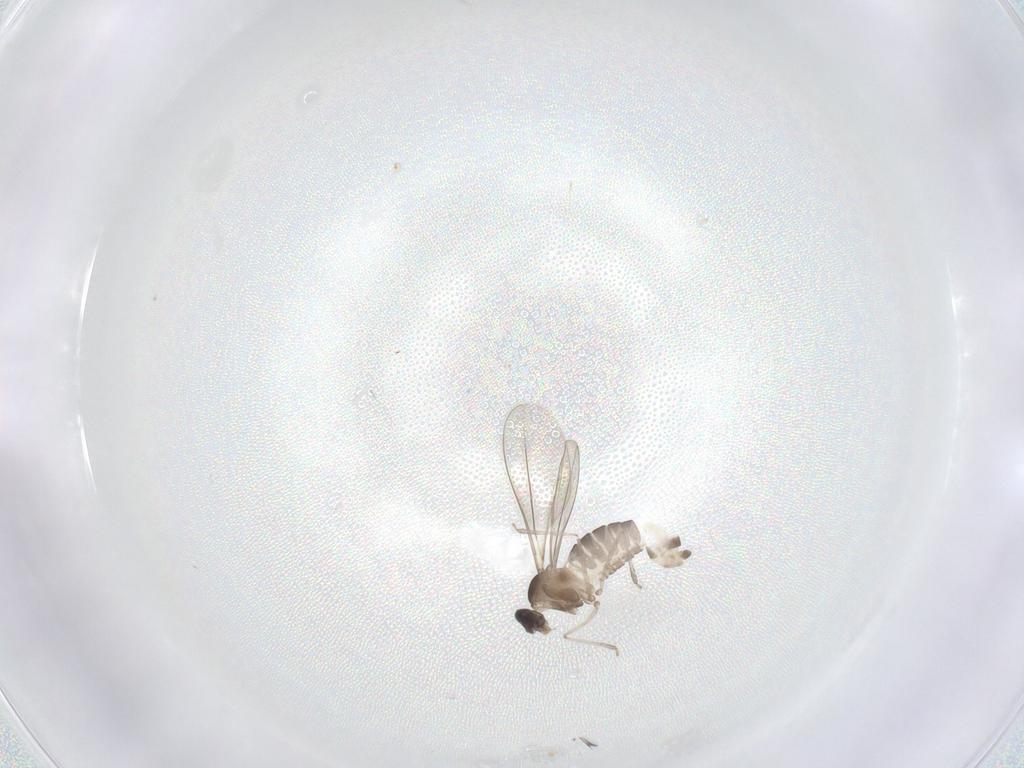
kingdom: Animalia
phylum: Arthropoda
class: Insecta
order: Diptera
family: Cecidomyiidae
